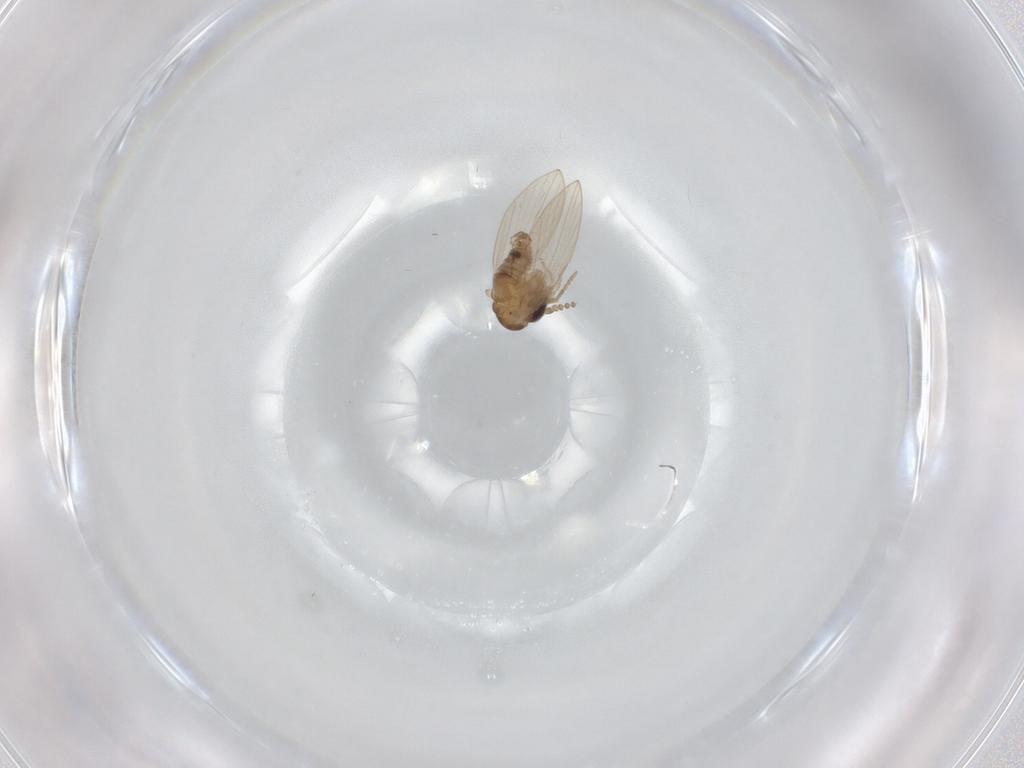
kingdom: Animalia
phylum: Arthropoda
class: Insecta
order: Diptera
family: Psychodidae
